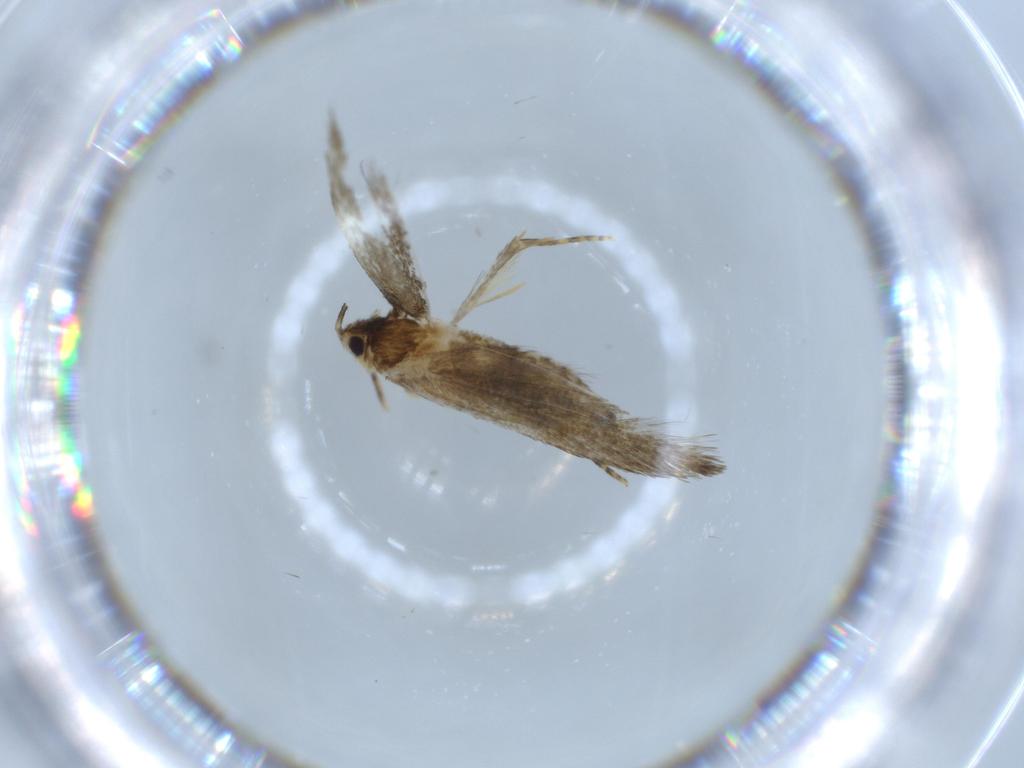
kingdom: Animalia
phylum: Arthropoda
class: Insecta
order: Lepidoptera
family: Tineidae
